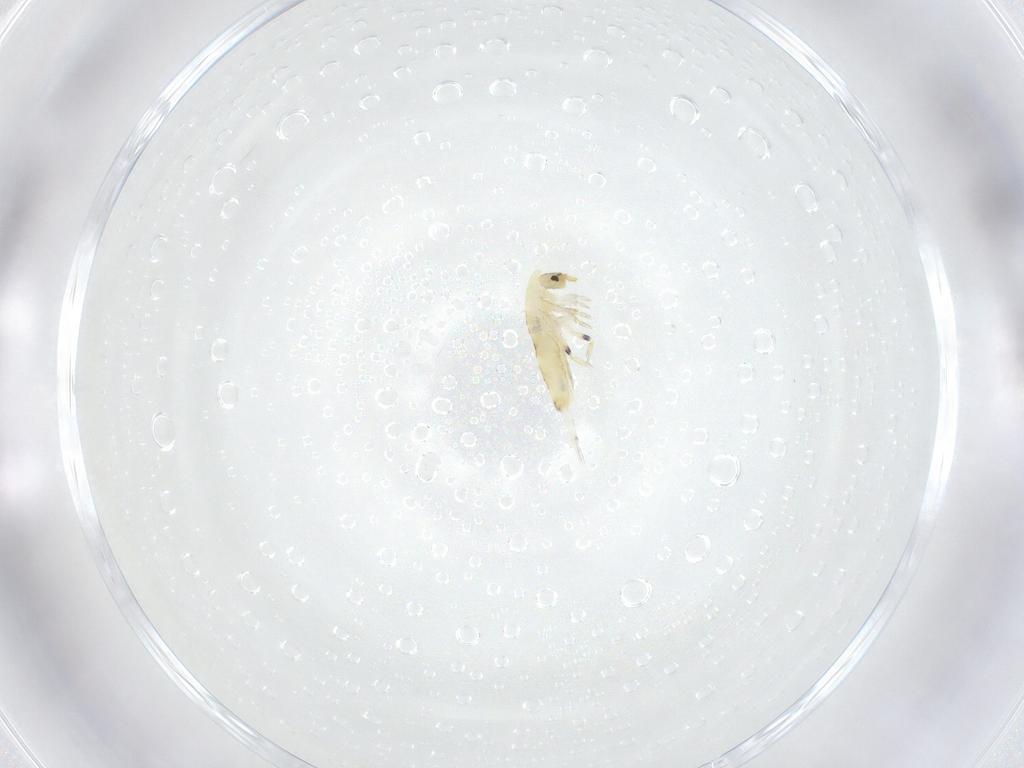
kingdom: Animalia
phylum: Arthropoda
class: Collembola
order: Entomobryomorpha
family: Entomobryidae
